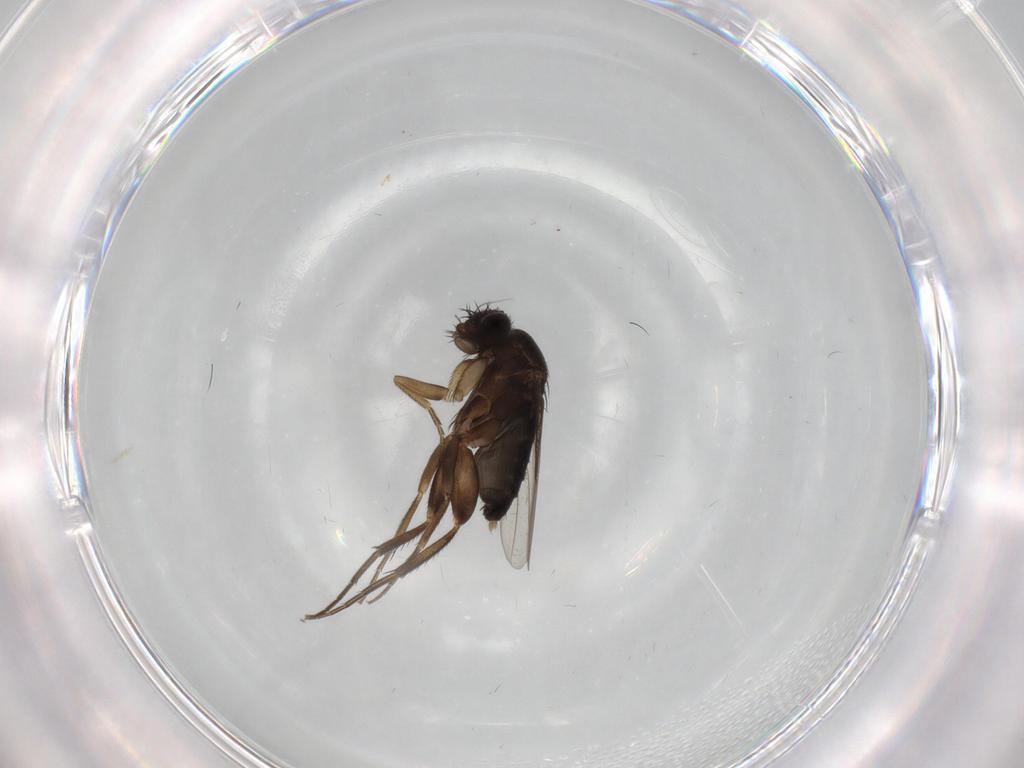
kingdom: Animalia
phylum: Arthropoda
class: Insecta
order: Diptera
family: Phoridae
